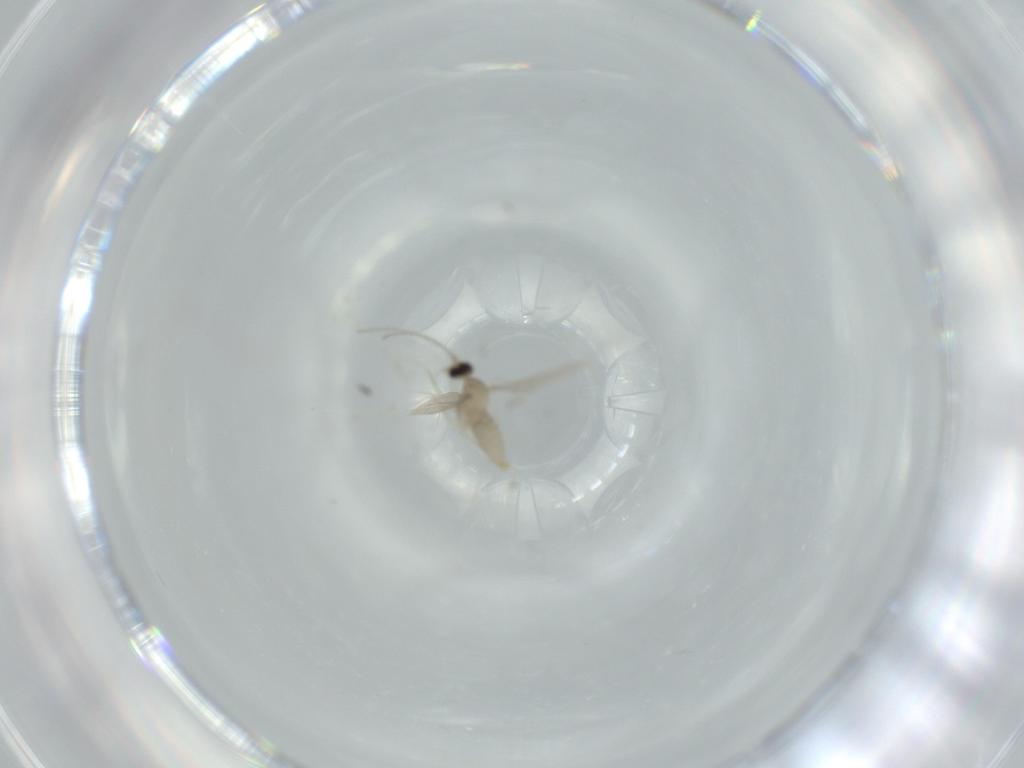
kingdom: Animalia
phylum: Arthropoda
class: Insecta
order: Diptera
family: Cecidomyiidae
